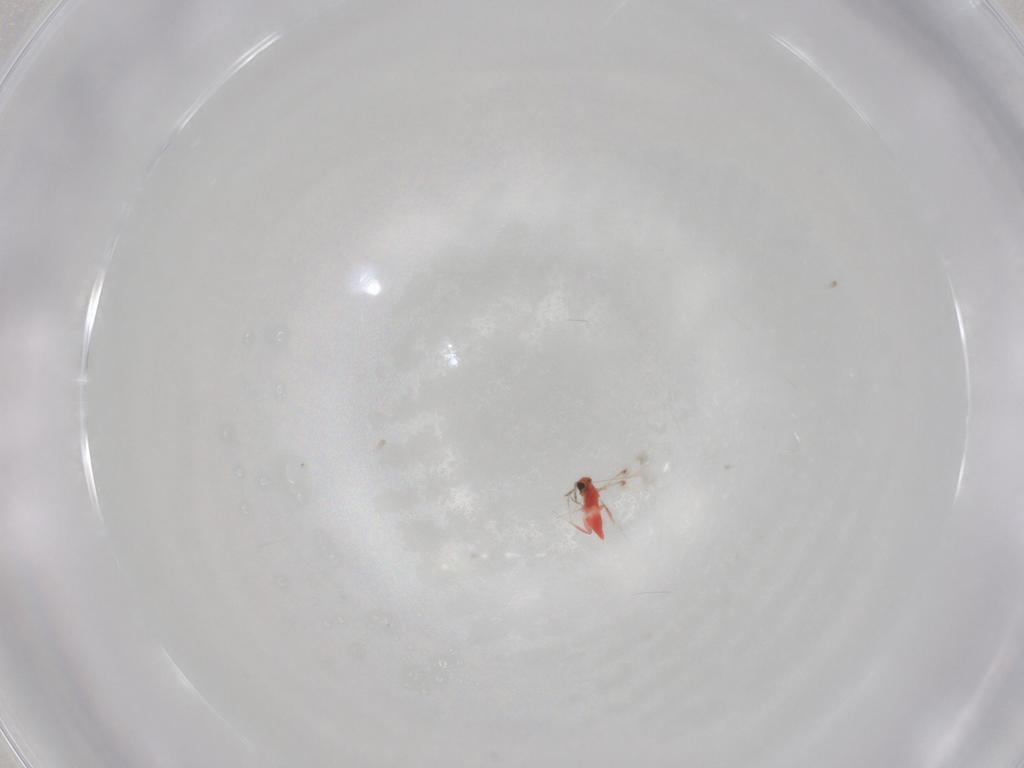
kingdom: Animalia
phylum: Arthropoda
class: Insecta
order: Hymenoptera
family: Trichogrammatidae
